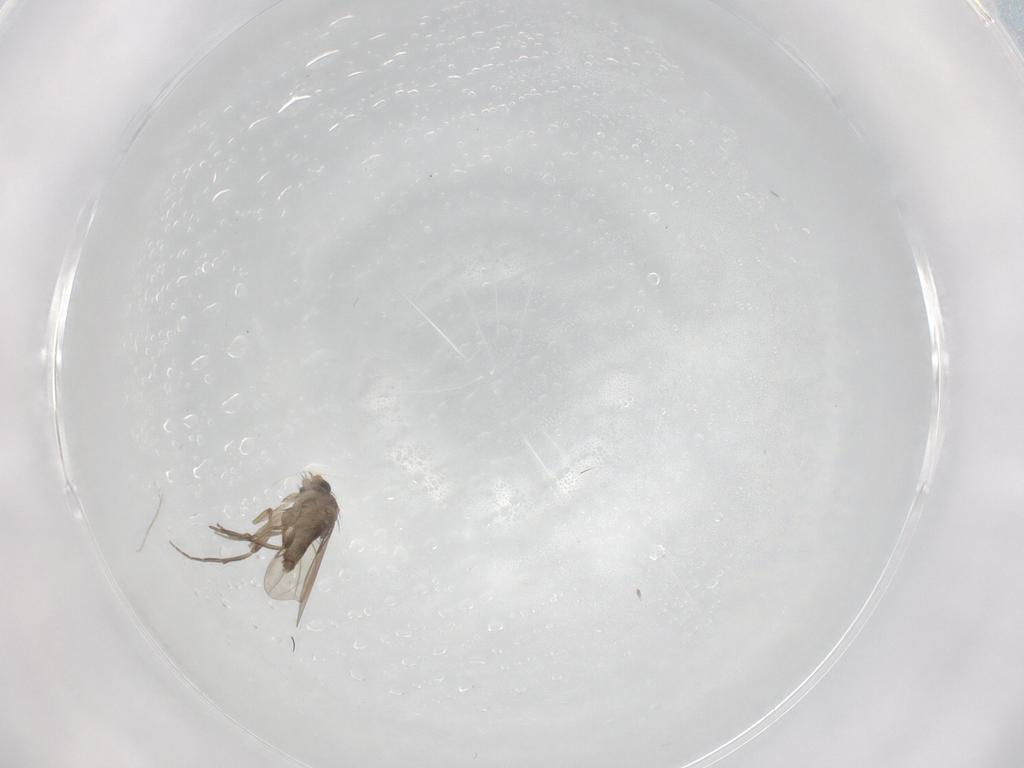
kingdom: Animalia
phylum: Arthropoda
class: Insecta
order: Diptera
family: Phoridae
